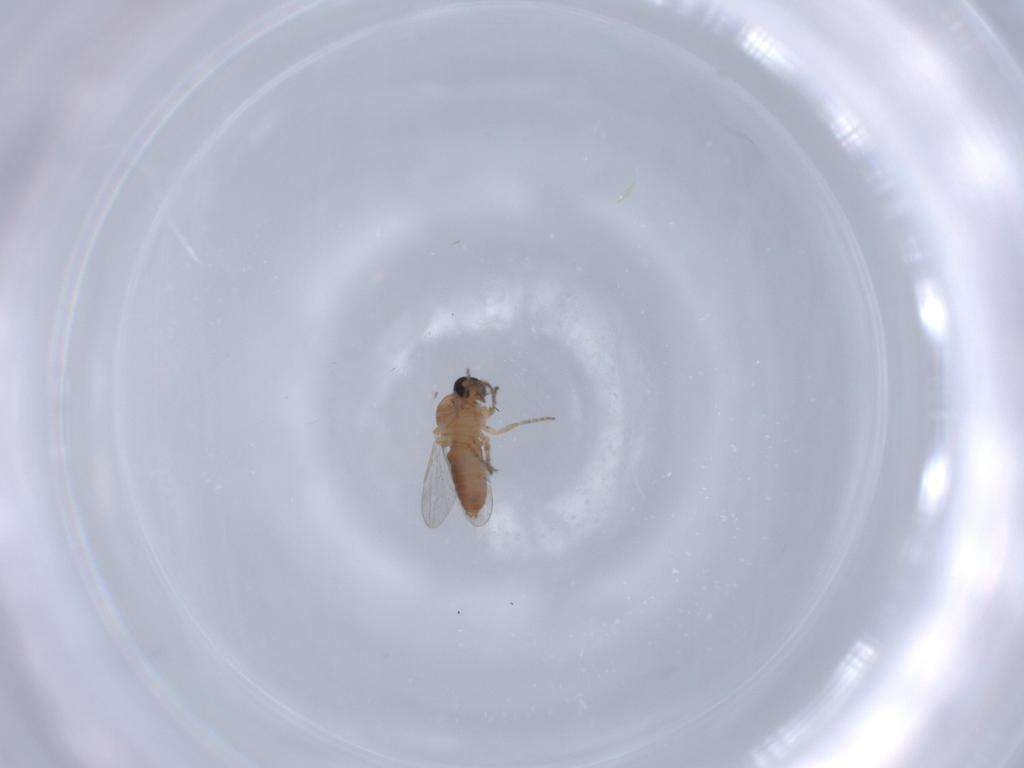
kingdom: Animalia
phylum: Arthropoda
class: Insecta
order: Diptera
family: Ceratopogonidae
